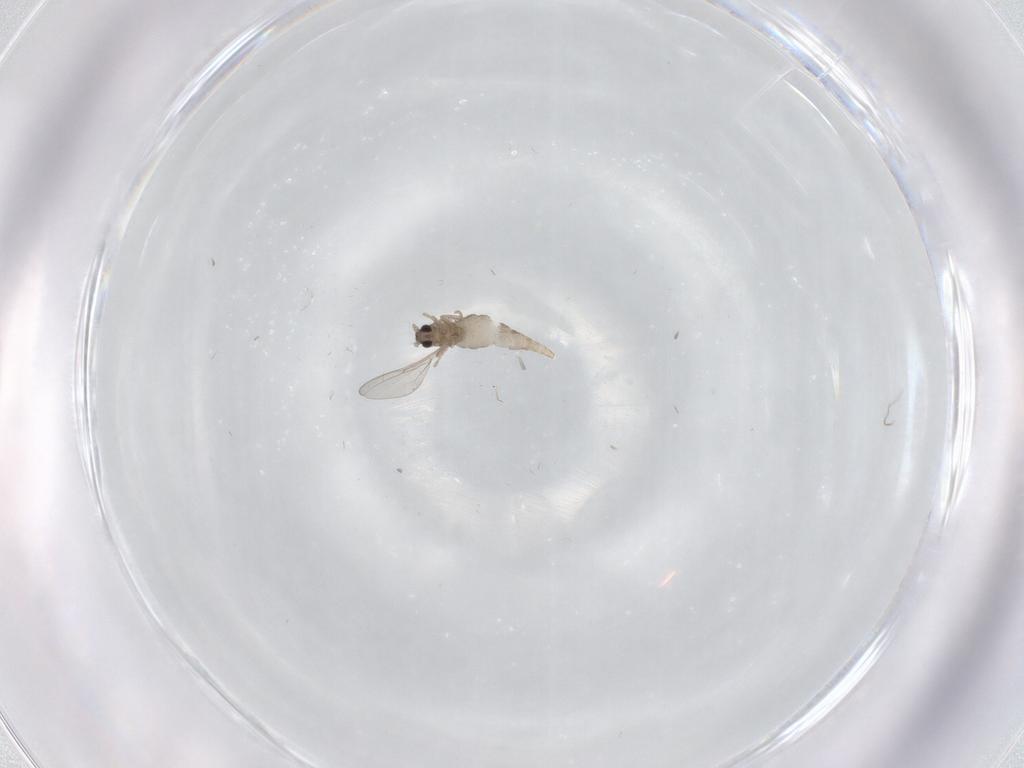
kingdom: Animalia
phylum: Arthropoda
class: Insecta
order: Diptera
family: Cecidomyiidae
